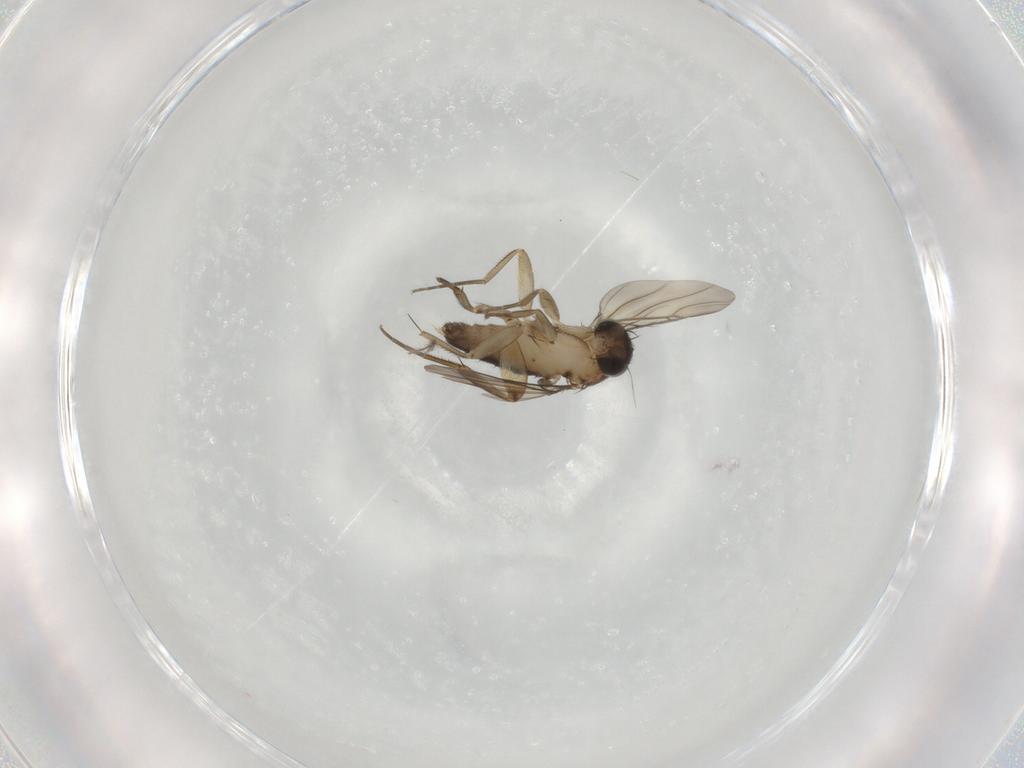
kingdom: Animalia
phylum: Arthropoda
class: Insecta
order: Diptera
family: Phoridae
